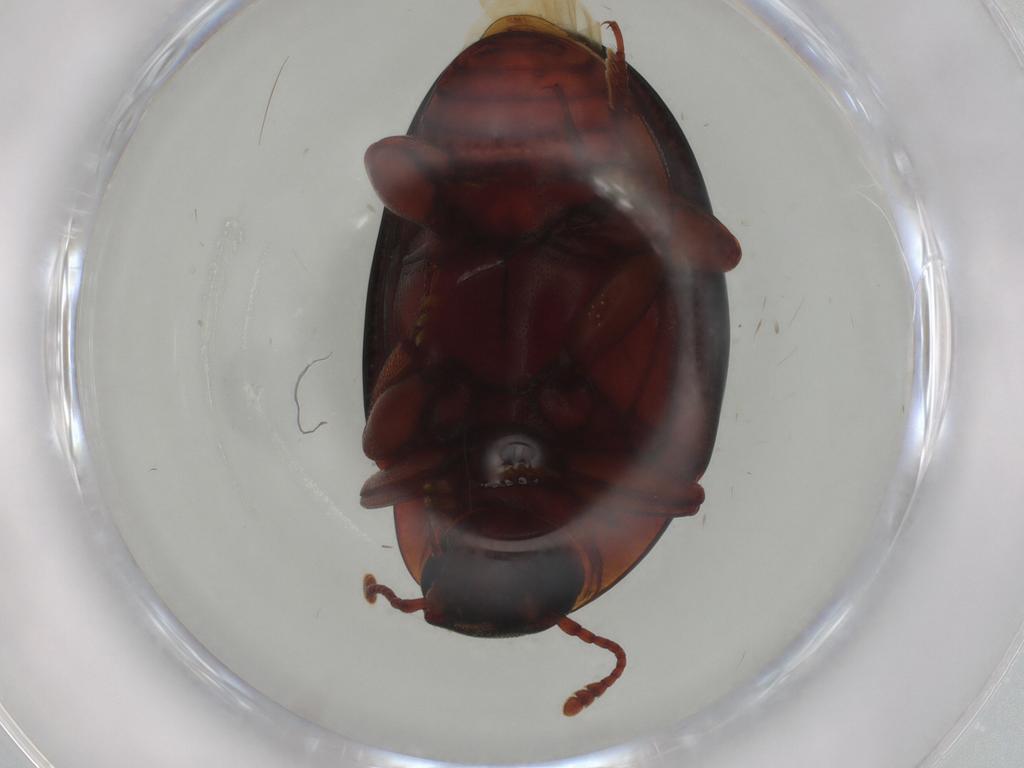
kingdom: Animalia
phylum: Arthropoda
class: Insecta
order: Coleoptera
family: Zopheridae
